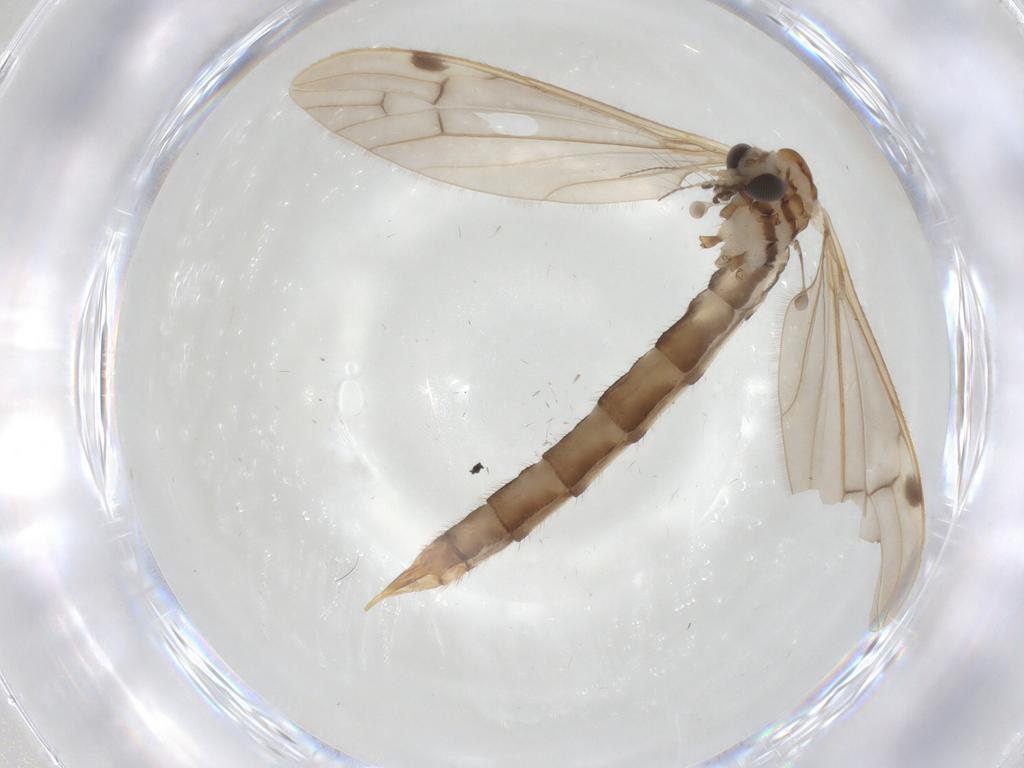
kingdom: Animalia
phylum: Arthropoda
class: Insecta
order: Diptera
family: Limoniidae
